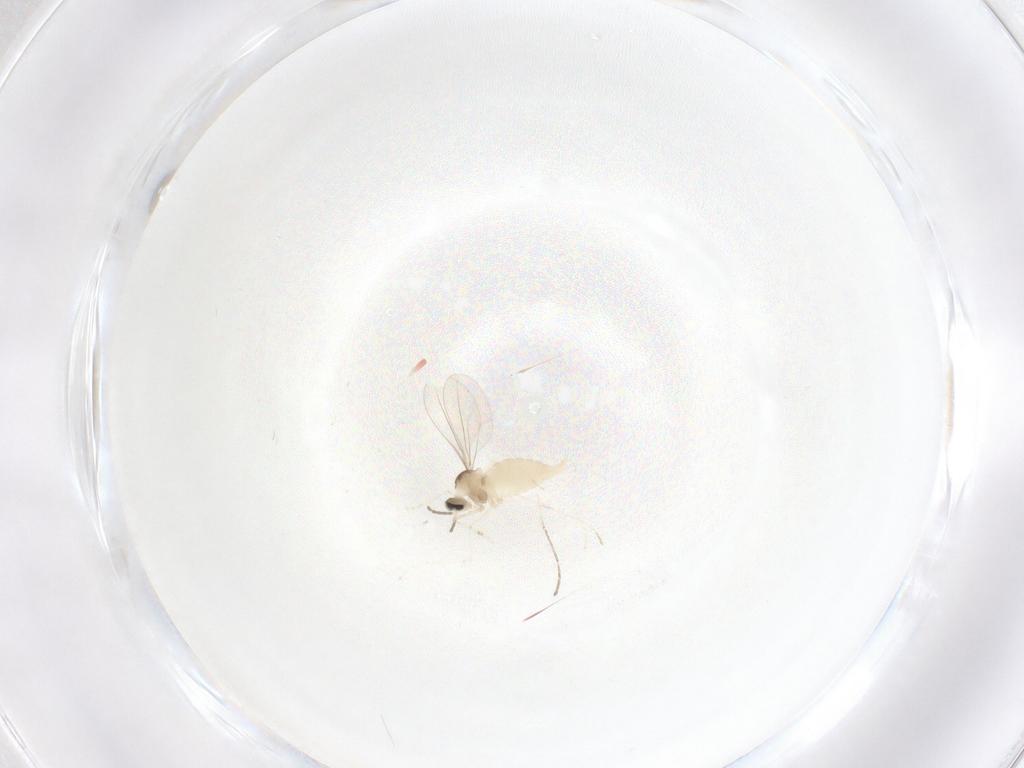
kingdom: Animalia
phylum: Arthropoda
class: Insecta
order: Diptera
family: Cecidomyiidae
